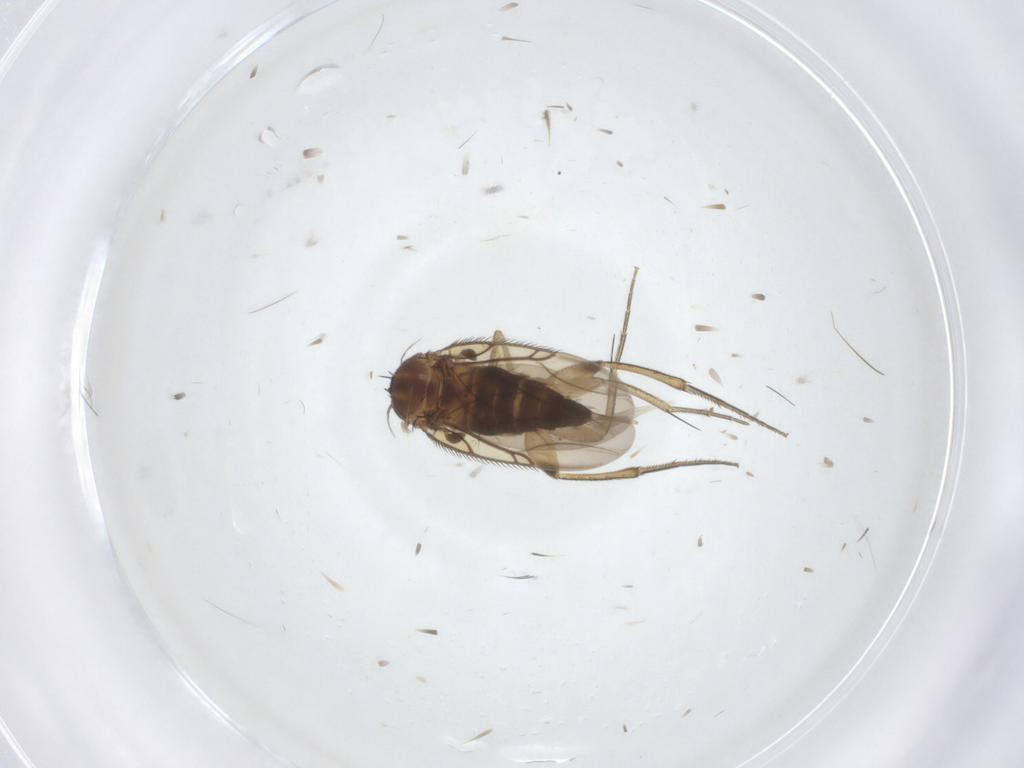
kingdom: Animalia
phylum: Arthropoda
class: Insecta
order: Diptera
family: Phoridae
